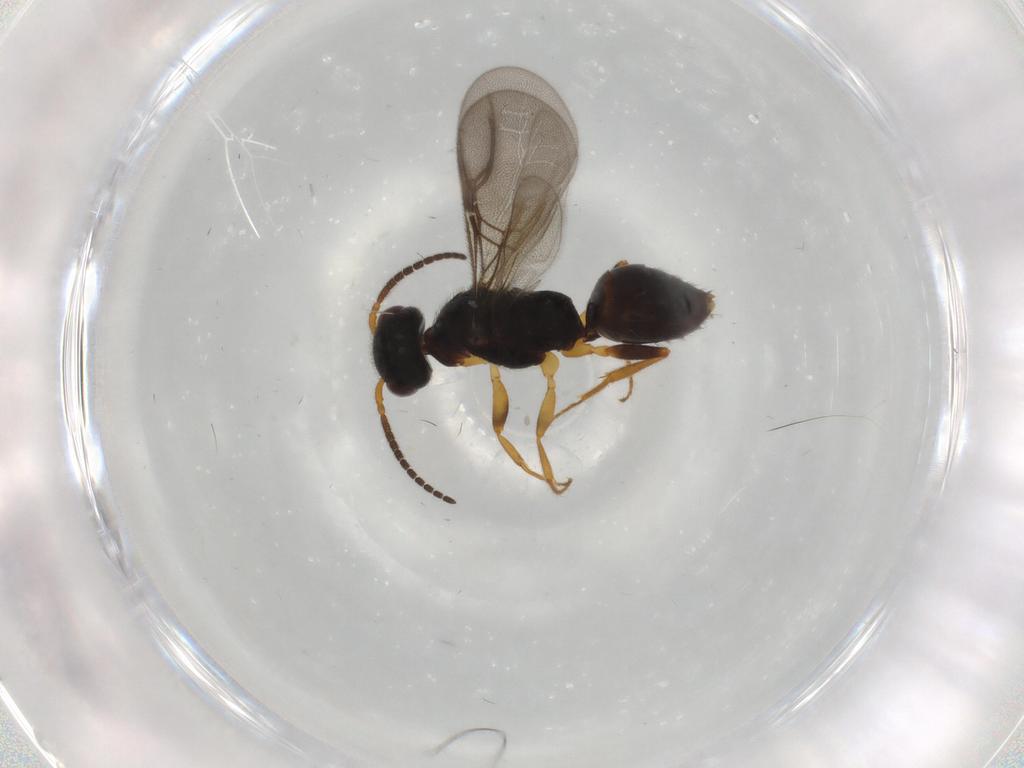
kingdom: Animalia
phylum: Arthropoda
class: Insecta
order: Hymenoptera
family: Bethylidae
